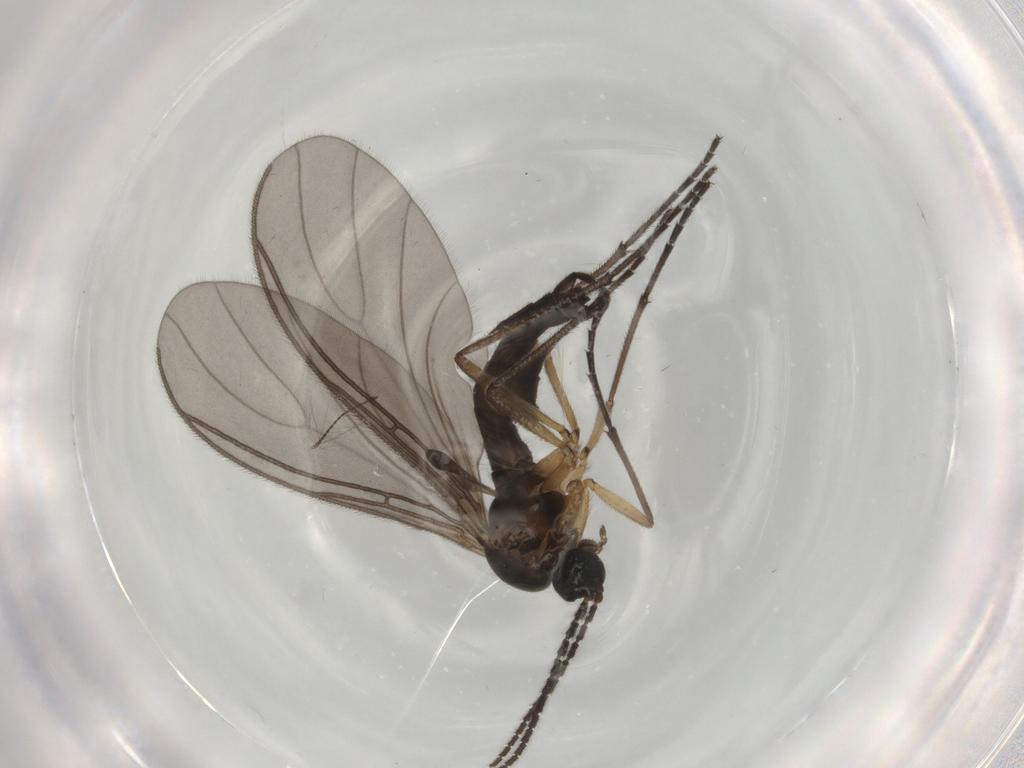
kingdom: Animalia
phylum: Arthropoda
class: Insecta
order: Diptera
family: Sciaridae
